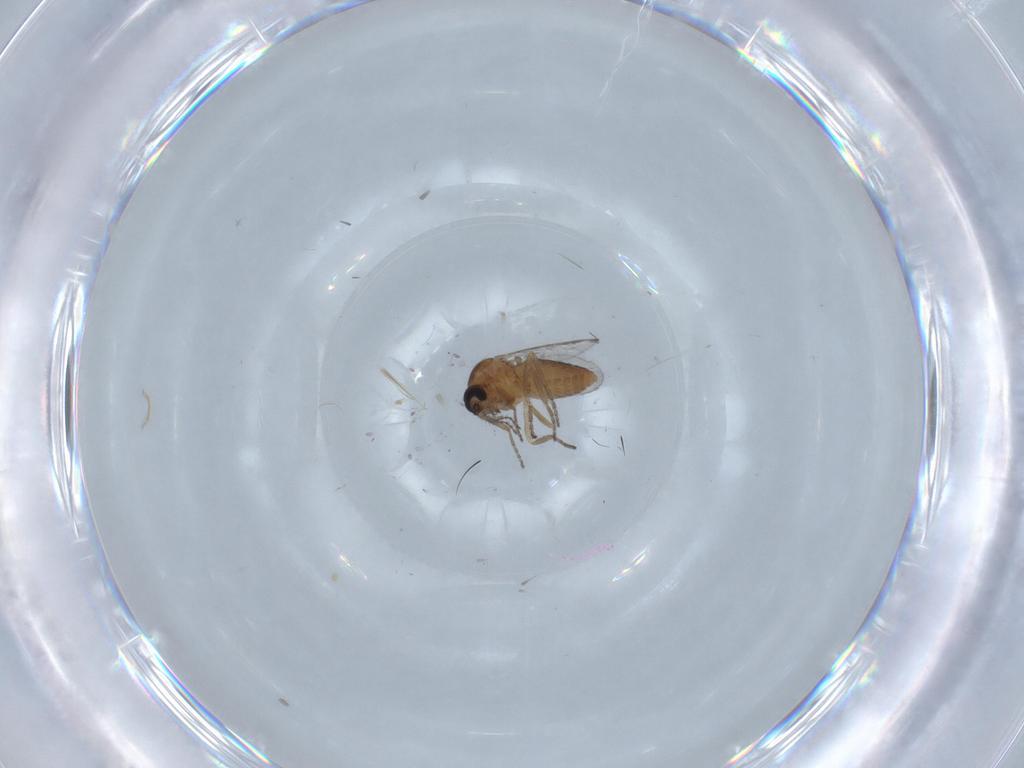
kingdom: Animalia
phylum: Arthropoda
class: Insecta
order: Diptera
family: Ceratopogonidae
